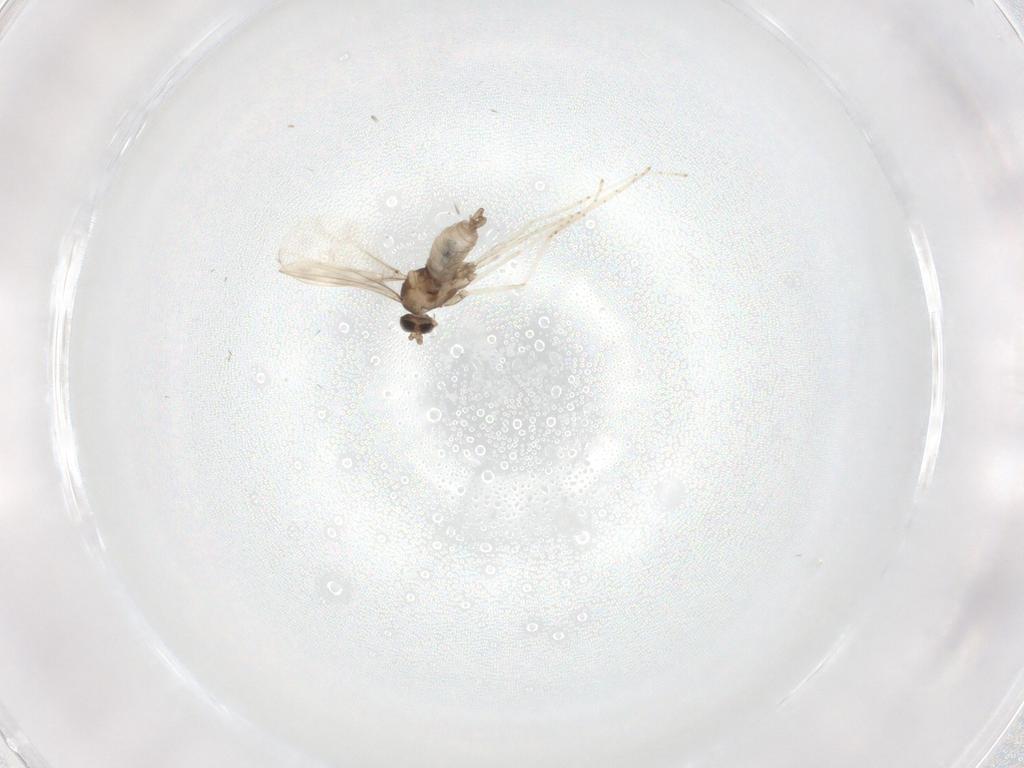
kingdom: Animalia
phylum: Arthropoda
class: Insecta
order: Diptera
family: Cecidomyiidae
